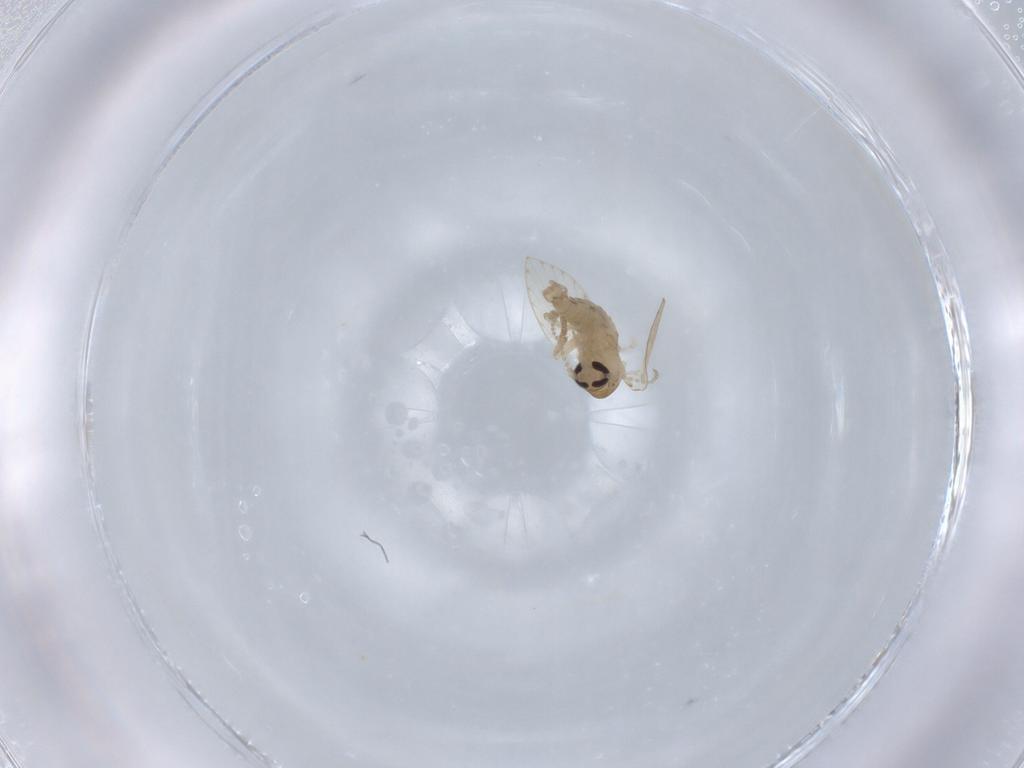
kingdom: Animalia
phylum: Arthropoda
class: Insecta
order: Diptera
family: Psychodidae
